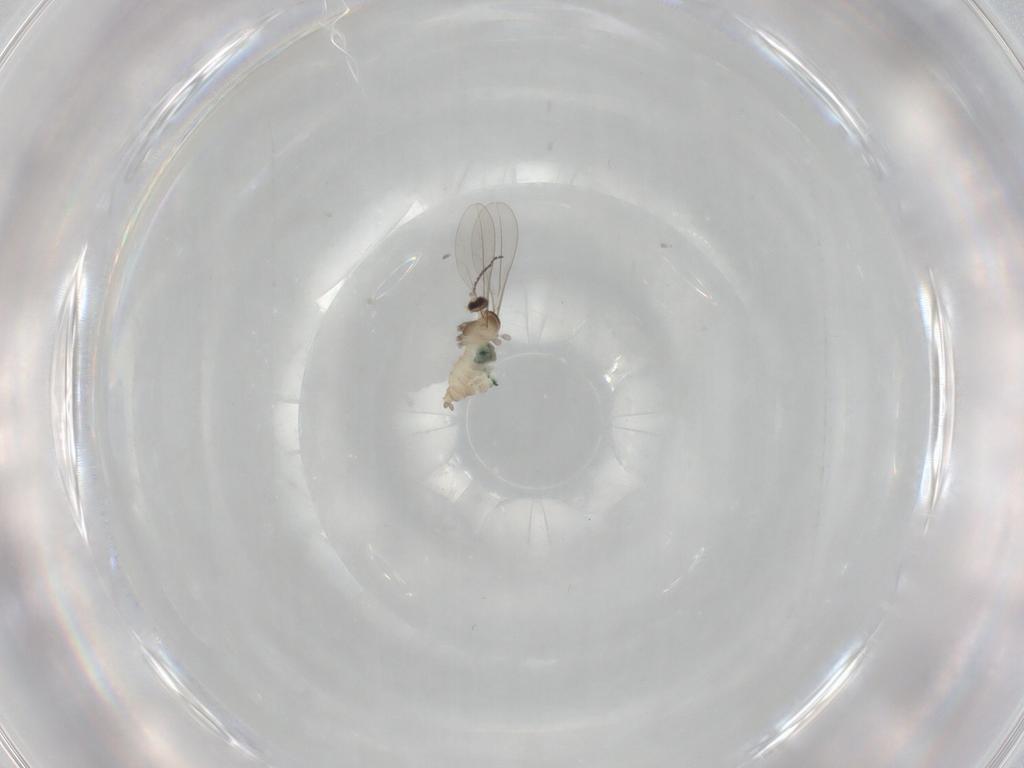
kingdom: Animalia
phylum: Arthropoda
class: Insecta
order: Diptera
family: Cecidomyiidae
